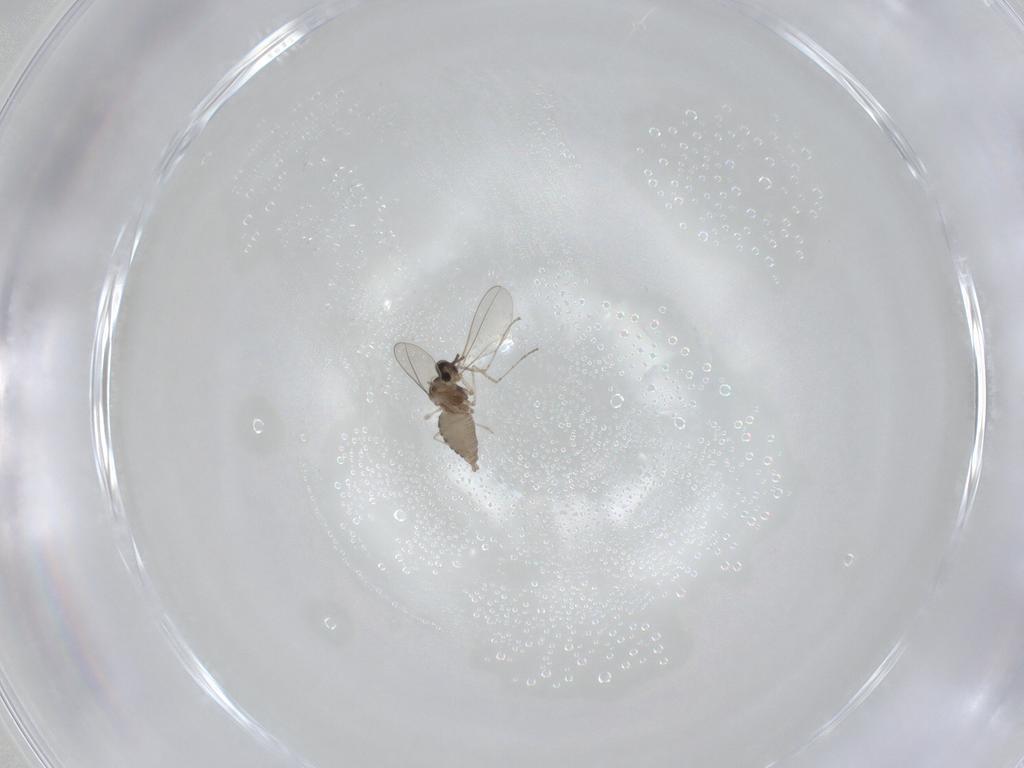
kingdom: Animalia
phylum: Arthropoda
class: Insecta
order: Diptera
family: Cecidomyiidae
